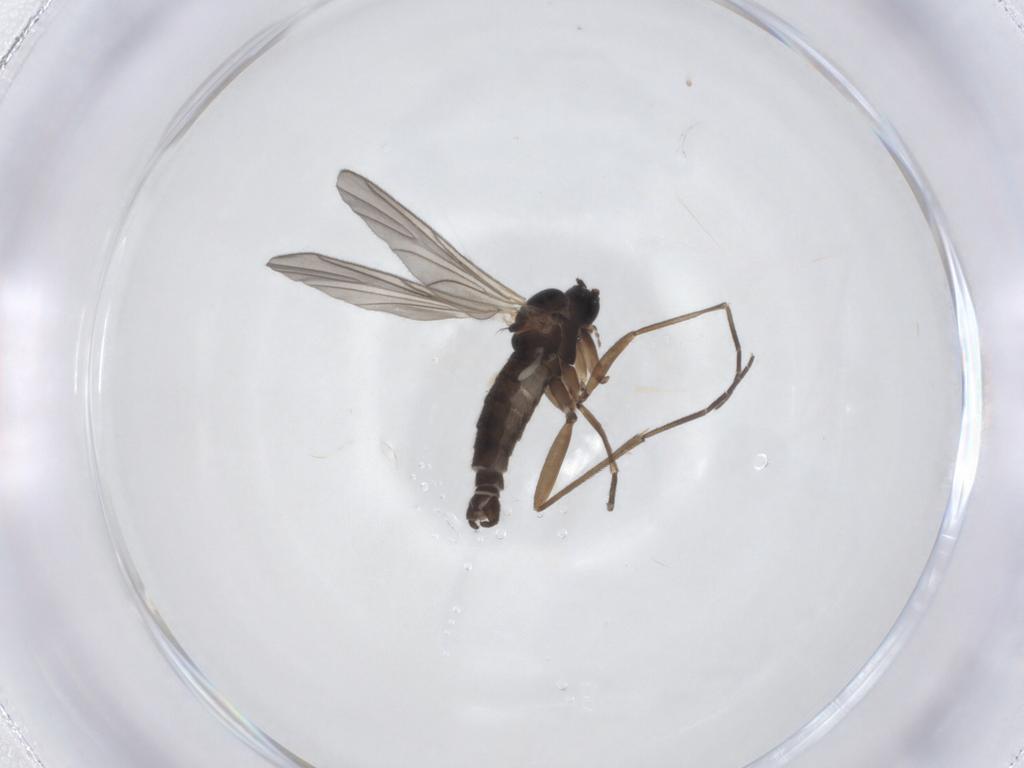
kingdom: Animalia
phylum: Arthropoda
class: Insecta
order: Diptera
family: Sciaridae
